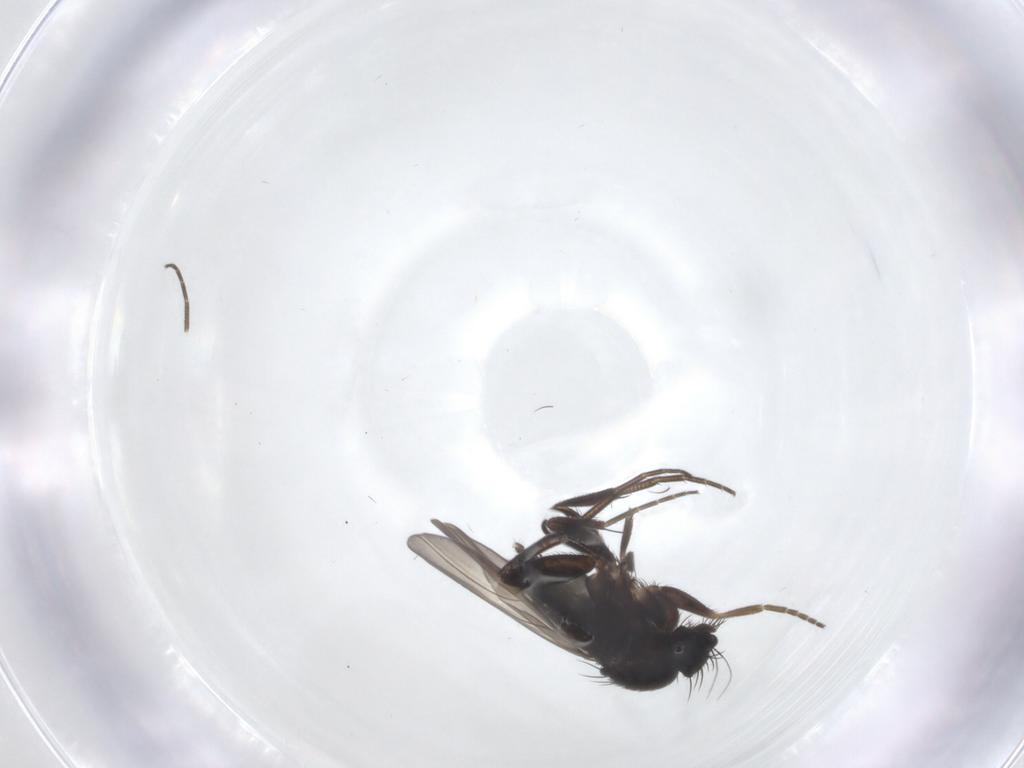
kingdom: Animalia
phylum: Arthropoda
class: Insecta
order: Diptera
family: Phoridae
